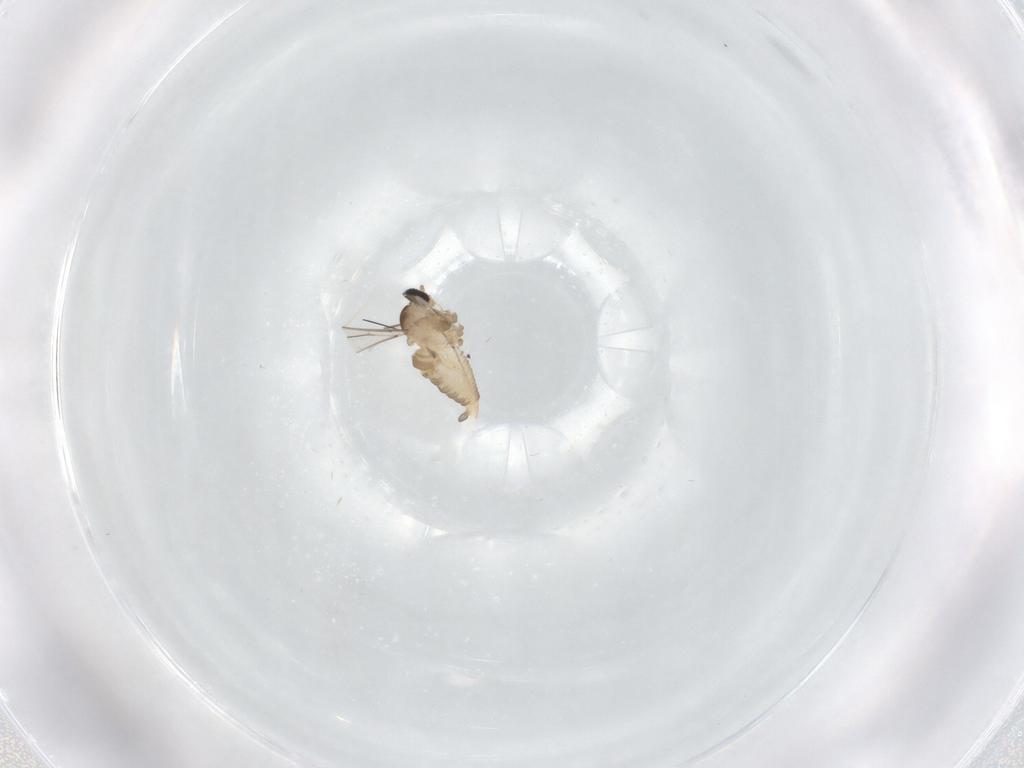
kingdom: Animalia
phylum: Arthropoda
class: Insecta
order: Diptera
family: Cecidomyiidae
